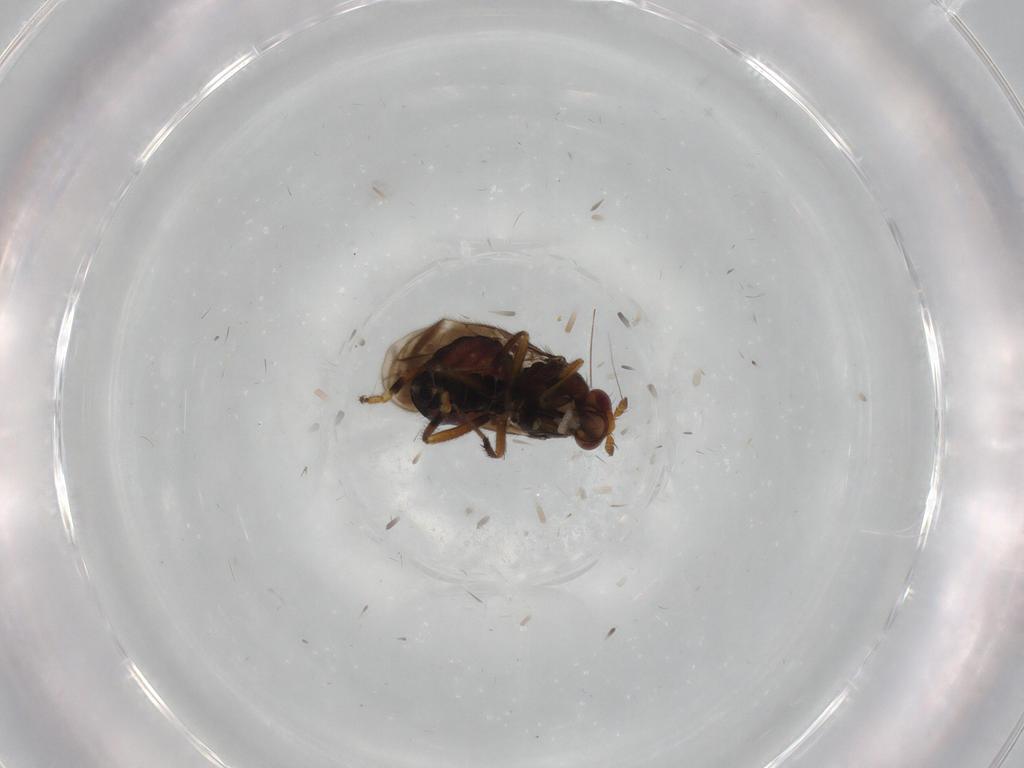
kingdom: Animalia
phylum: Arthropoda
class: Insecta
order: Diptera
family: Sphaeroceridae
